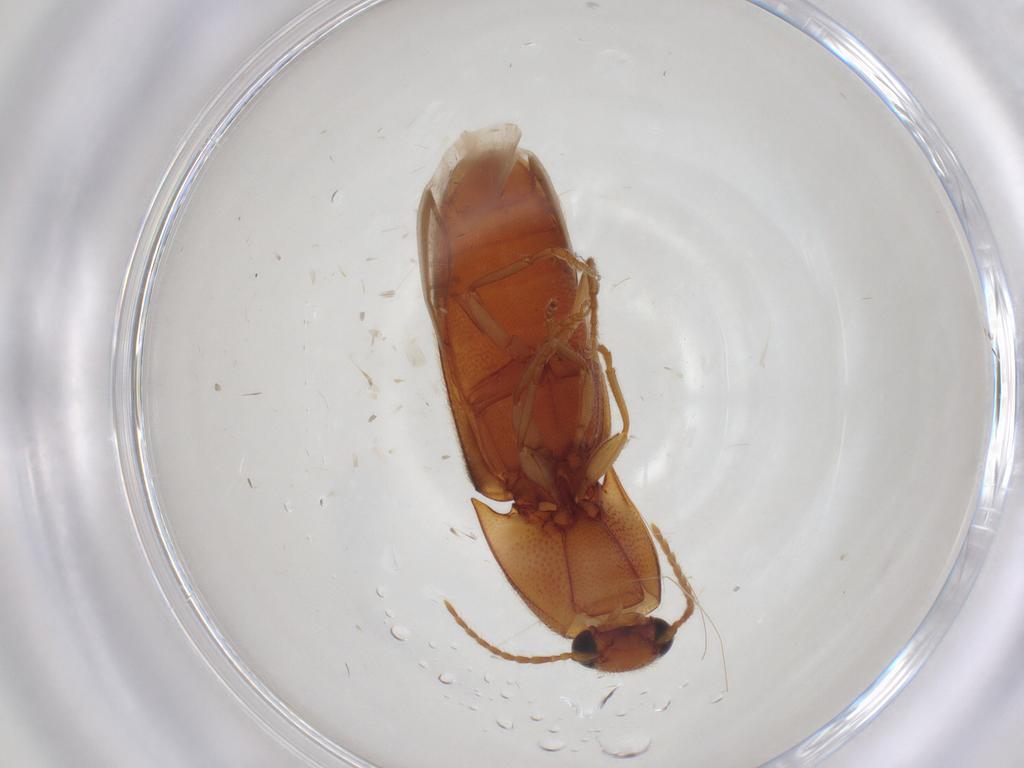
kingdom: Animalia
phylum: Arthropoda
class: Insecta
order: Coleoptera
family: Elateridae
